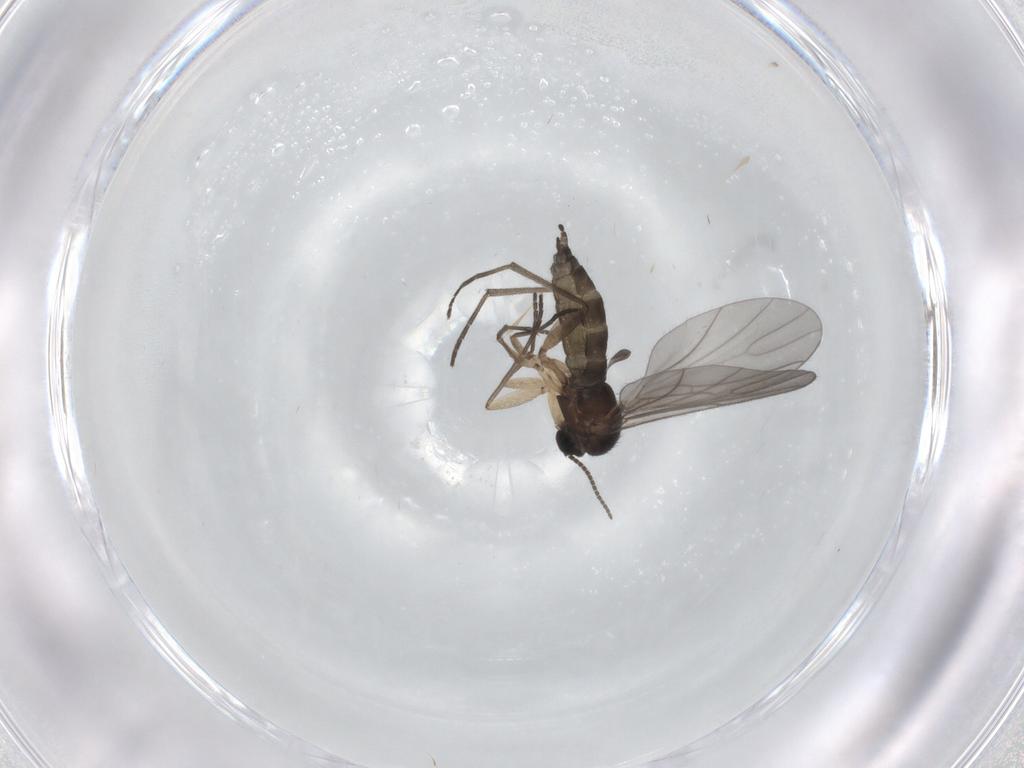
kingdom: Animalia
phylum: Arthropoda
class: Insecta
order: Diptera
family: Sciaridae
